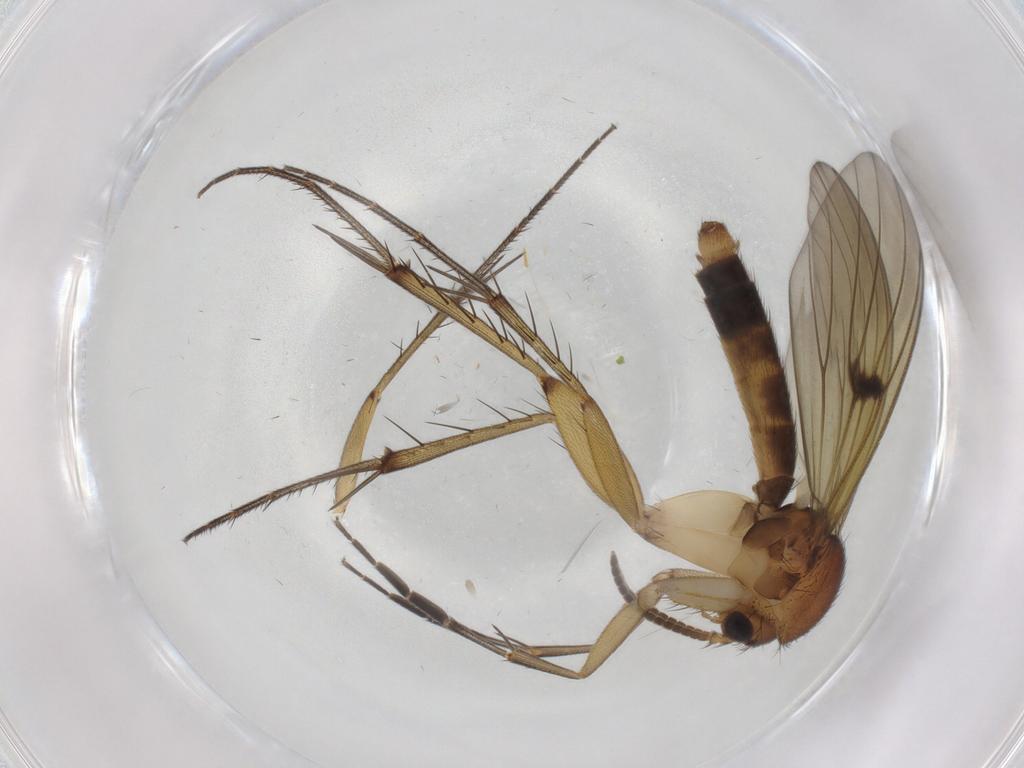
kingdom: Animalia
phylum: Arthropoda
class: Insecta
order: Diptera
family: Mycetophilidae
